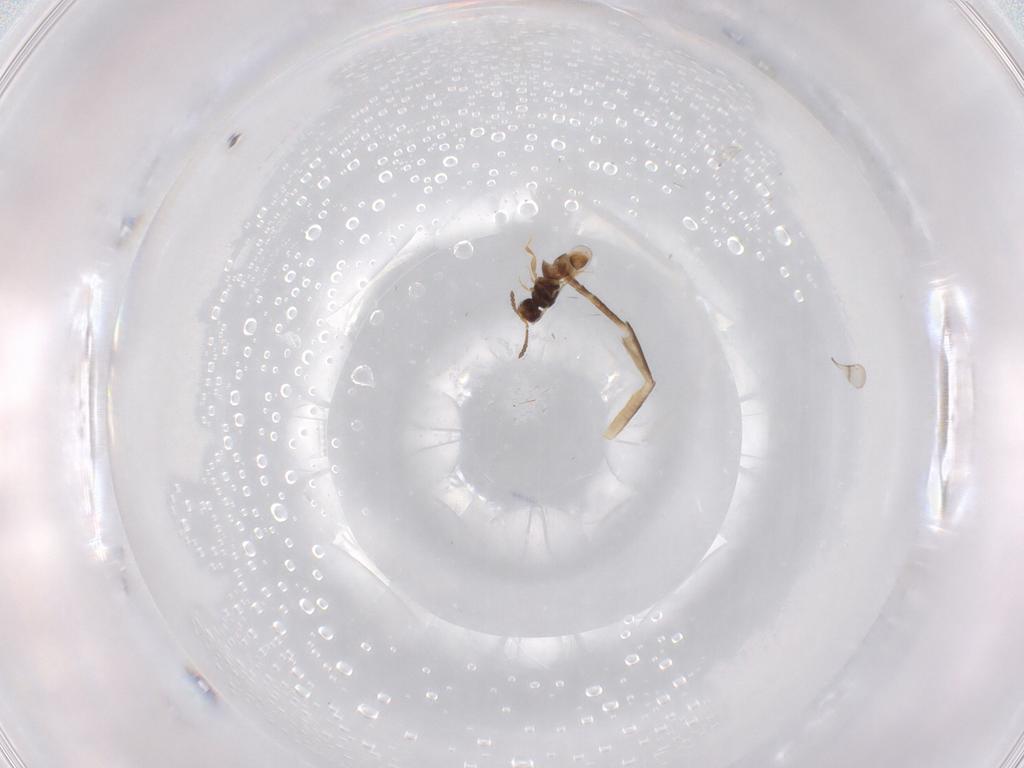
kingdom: Animalia
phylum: Arthropoda
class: Insecta
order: Hymenoptera
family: Ceraphronidae
